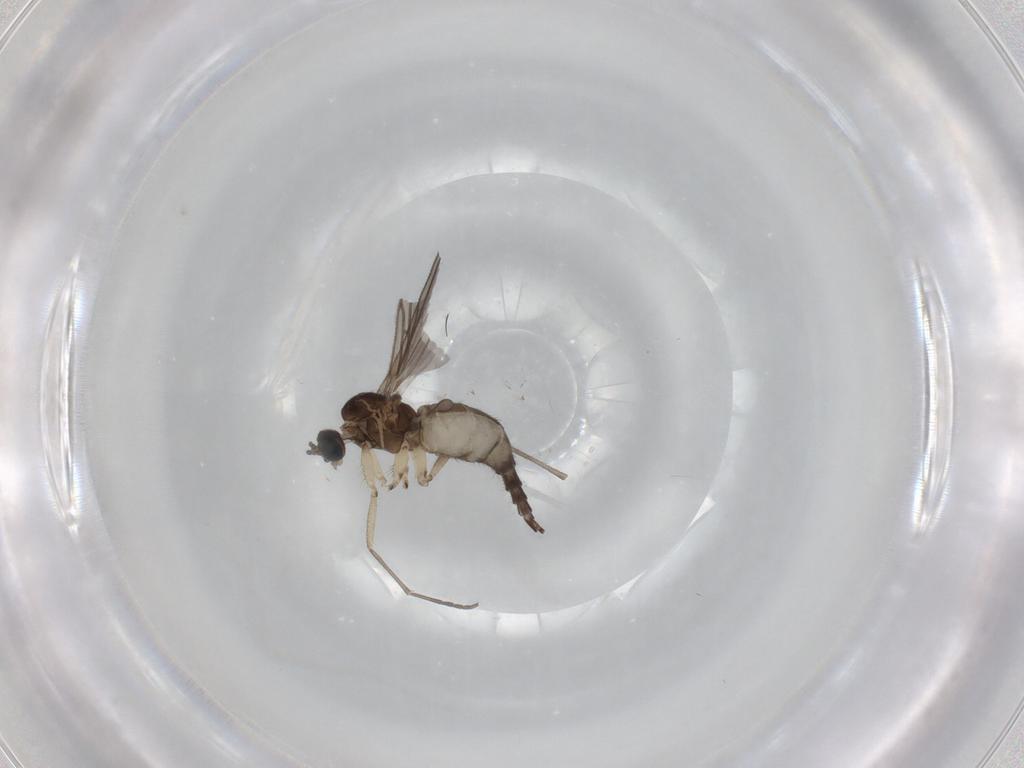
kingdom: Animalia
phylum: Arthropoda
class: Insecta
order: Diptera
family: Sciaridae
